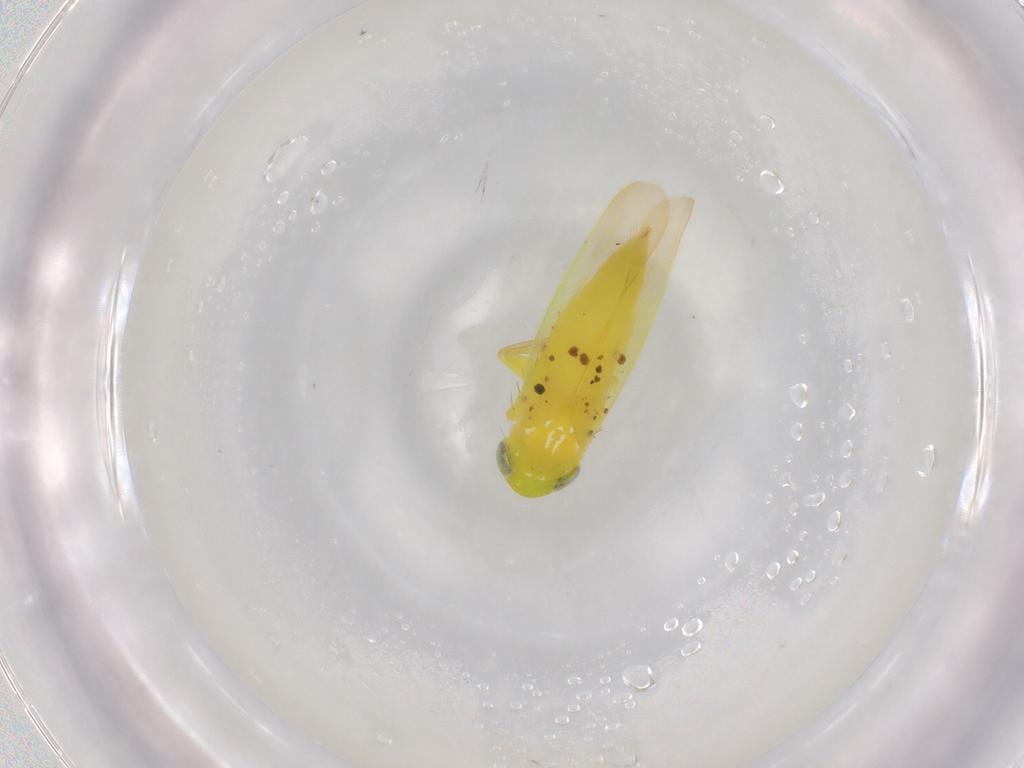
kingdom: Animalia
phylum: Arthropoda
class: Insecta
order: Hemiptera
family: Cicadellidae
